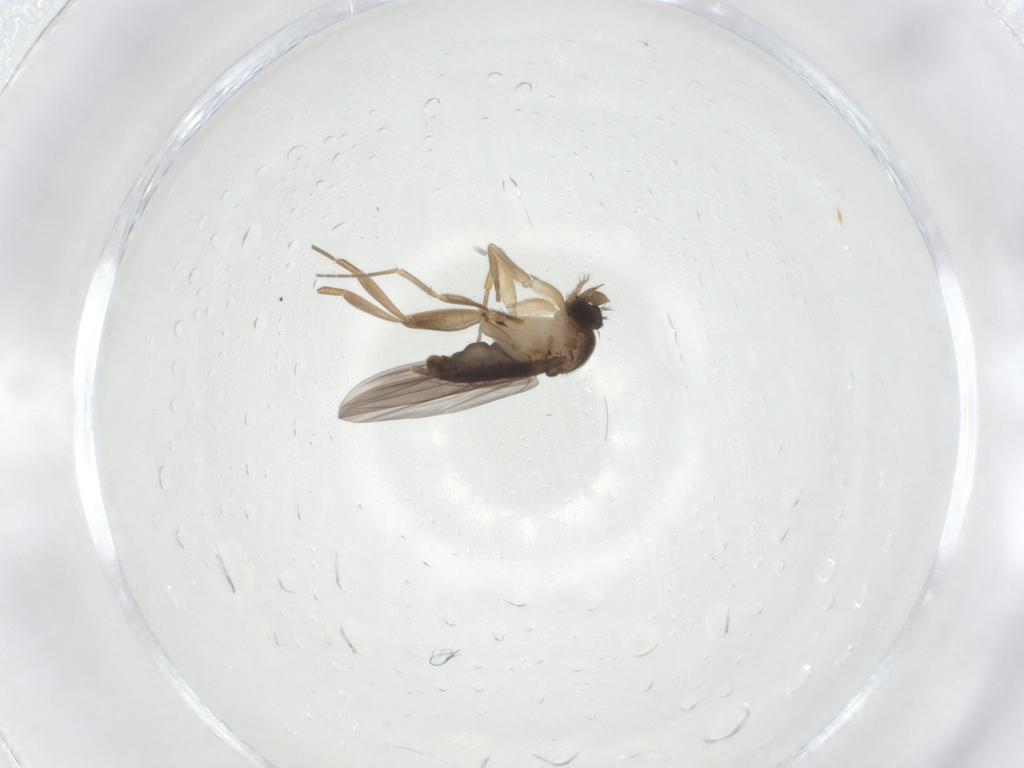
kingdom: Animalia
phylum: Arthropoda
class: Insecta
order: Diptera
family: Phoridae
